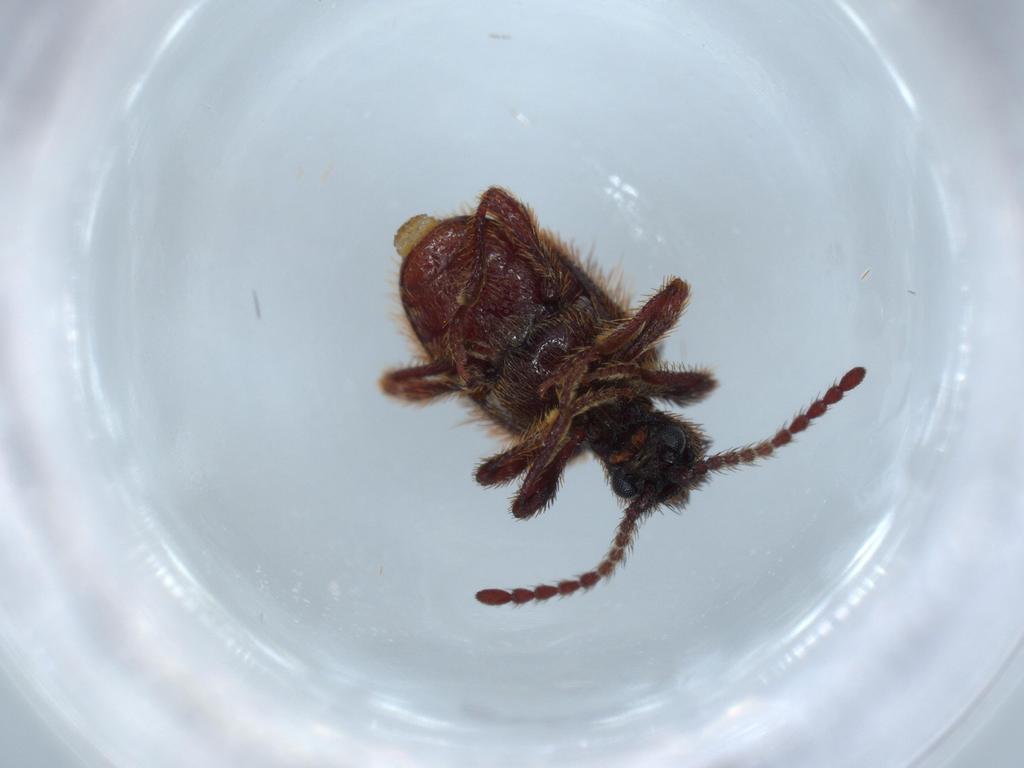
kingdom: Animalia
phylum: Arthropoda
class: Insecta
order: Coleoptera
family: Ptinidae
